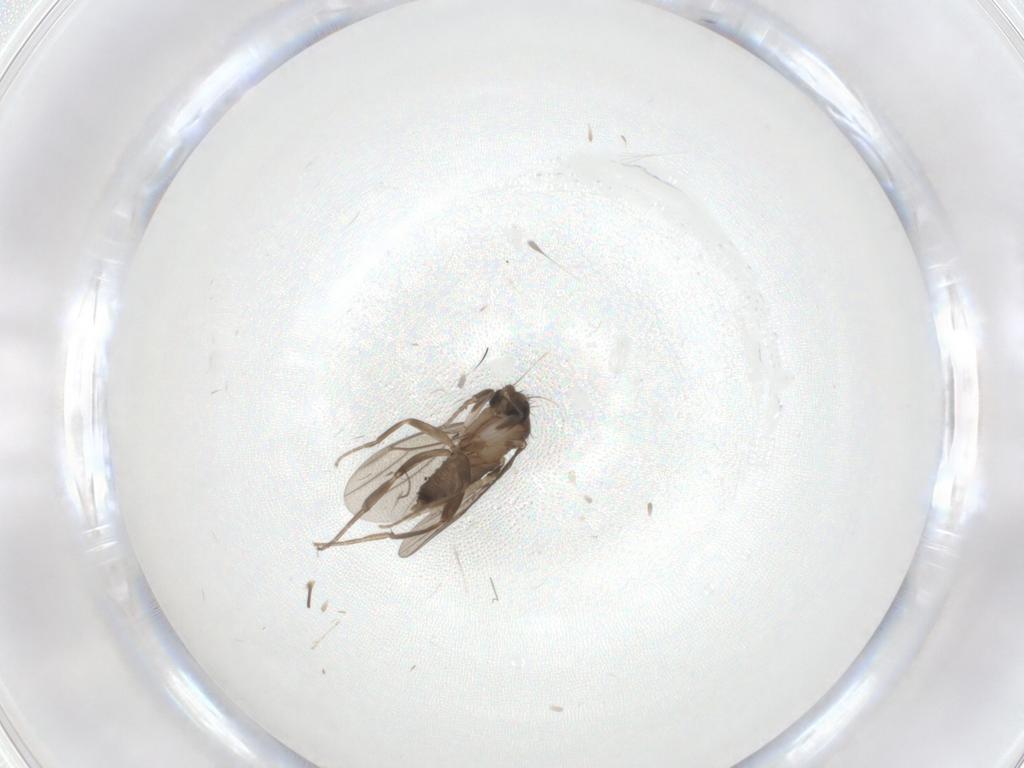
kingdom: Animalia
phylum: Arthropoda
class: Insecta
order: Diptera
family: Ceratopogonidae
